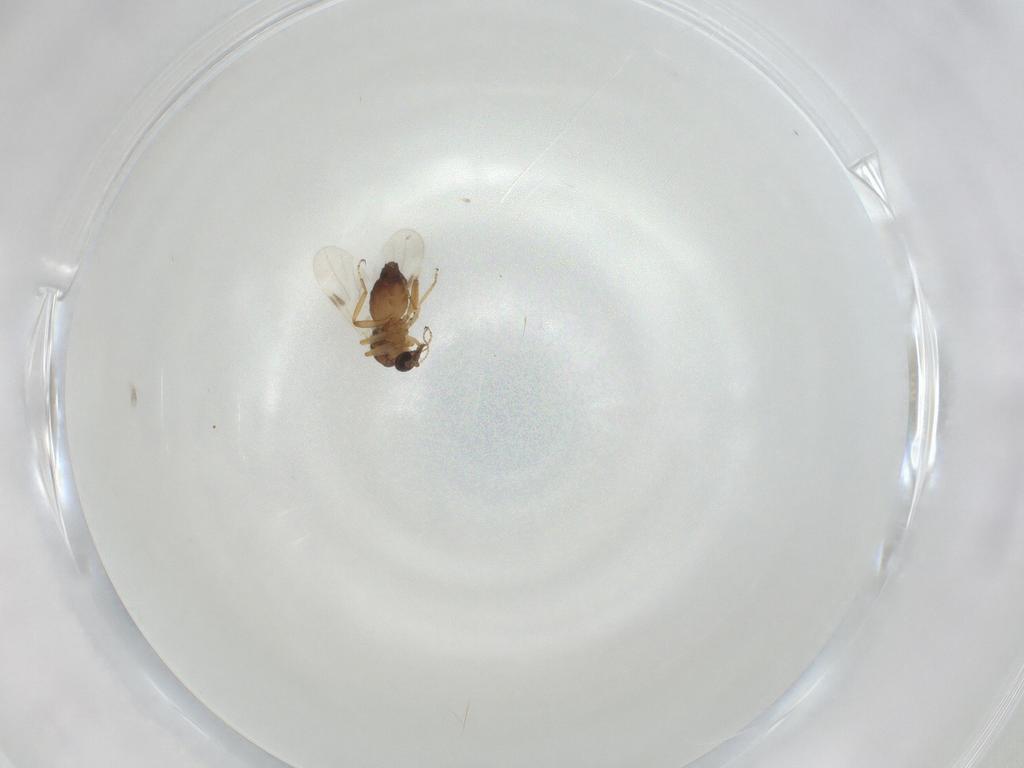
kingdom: Animalia
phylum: Arthropoda
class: Insecta
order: Diptera
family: Ceratopogonidae
